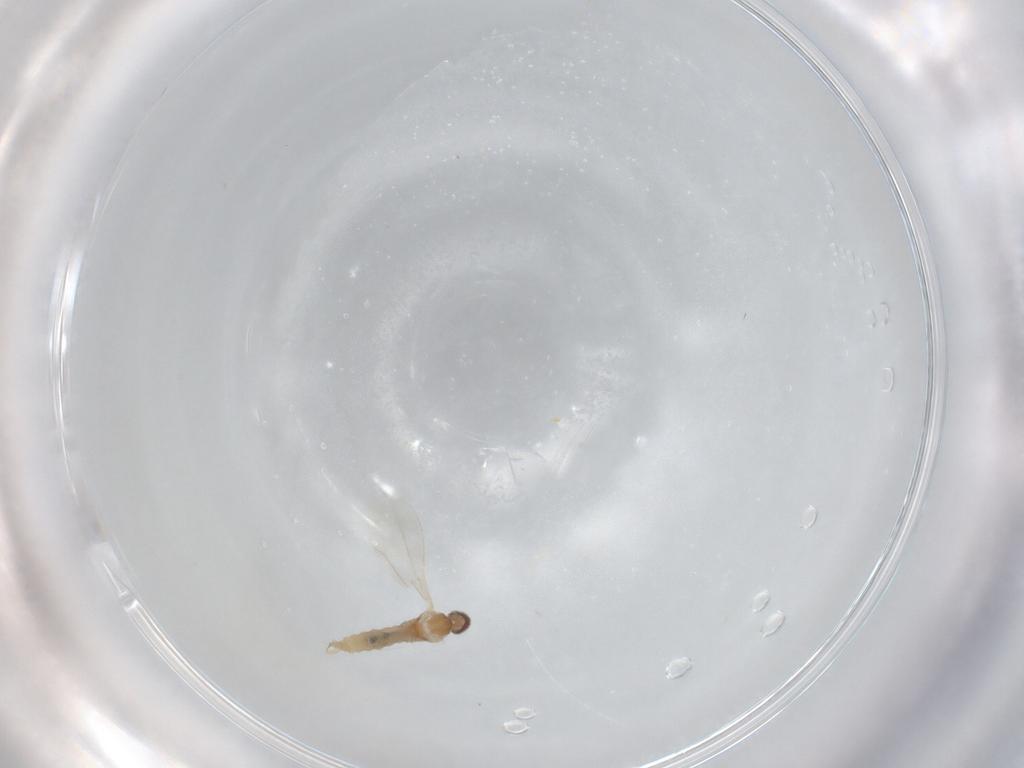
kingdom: Animalia
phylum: Arthropoda
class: Insecta
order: Diptera
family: Cecidomyiidae
